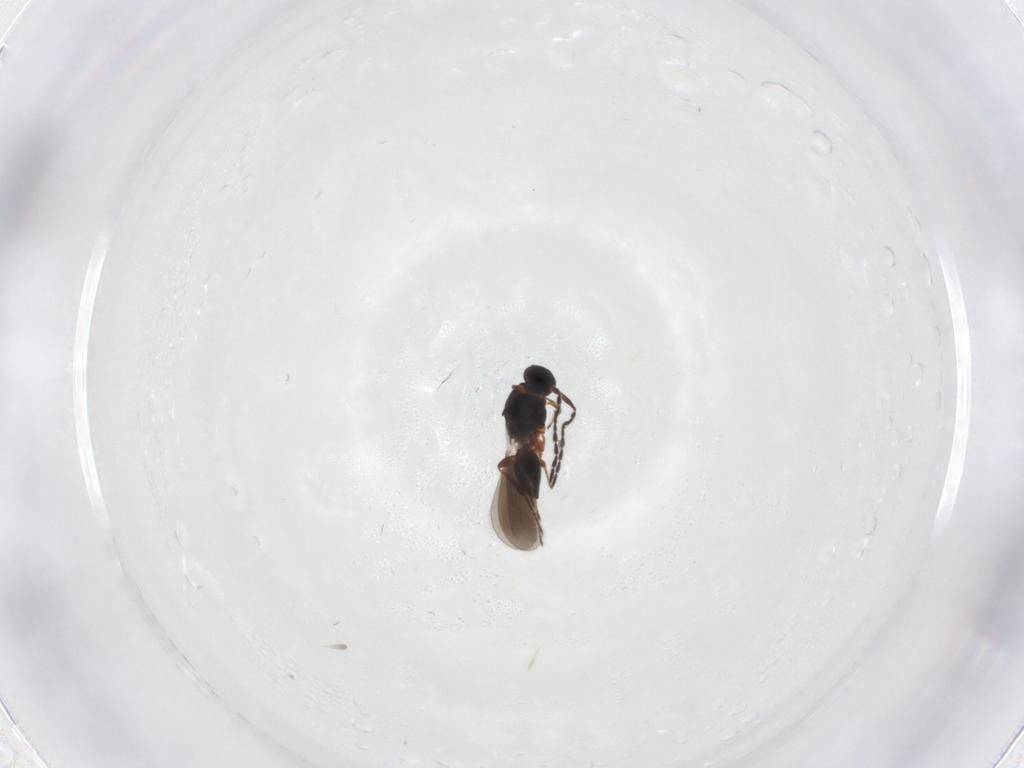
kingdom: Animalia
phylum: Arthropoda
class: Insecta
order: Hymenoptera
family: Platygastridae
